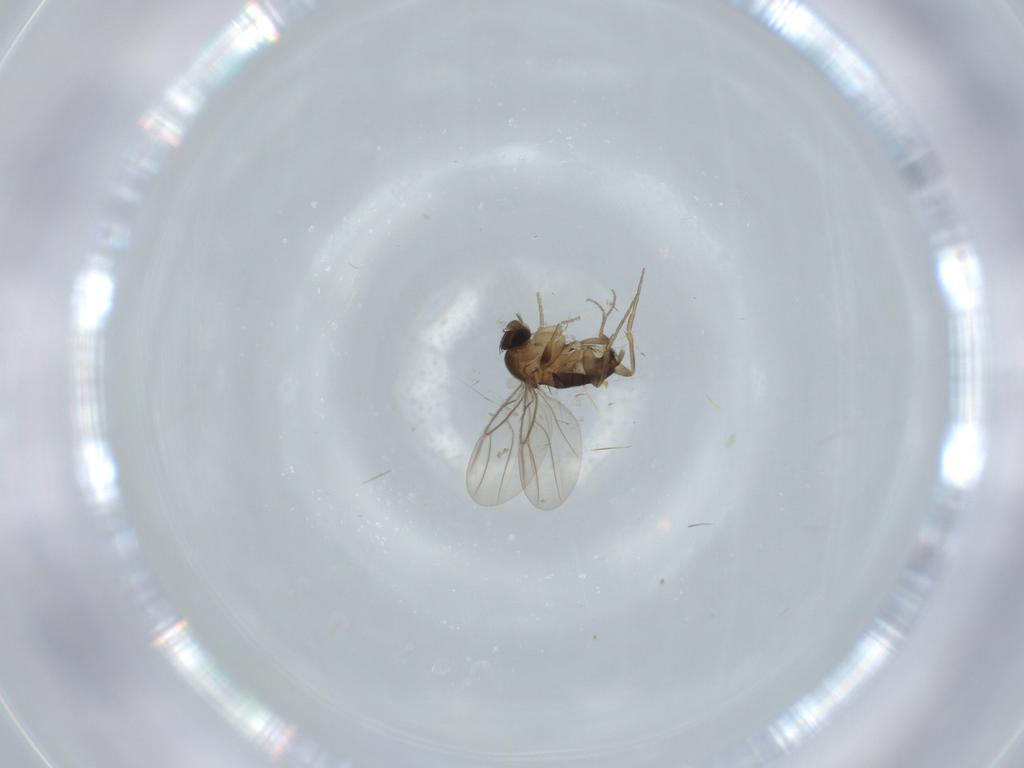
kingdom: Animalia
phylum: Arthropoda
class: Insecta
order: Diptera
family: Phoridae
